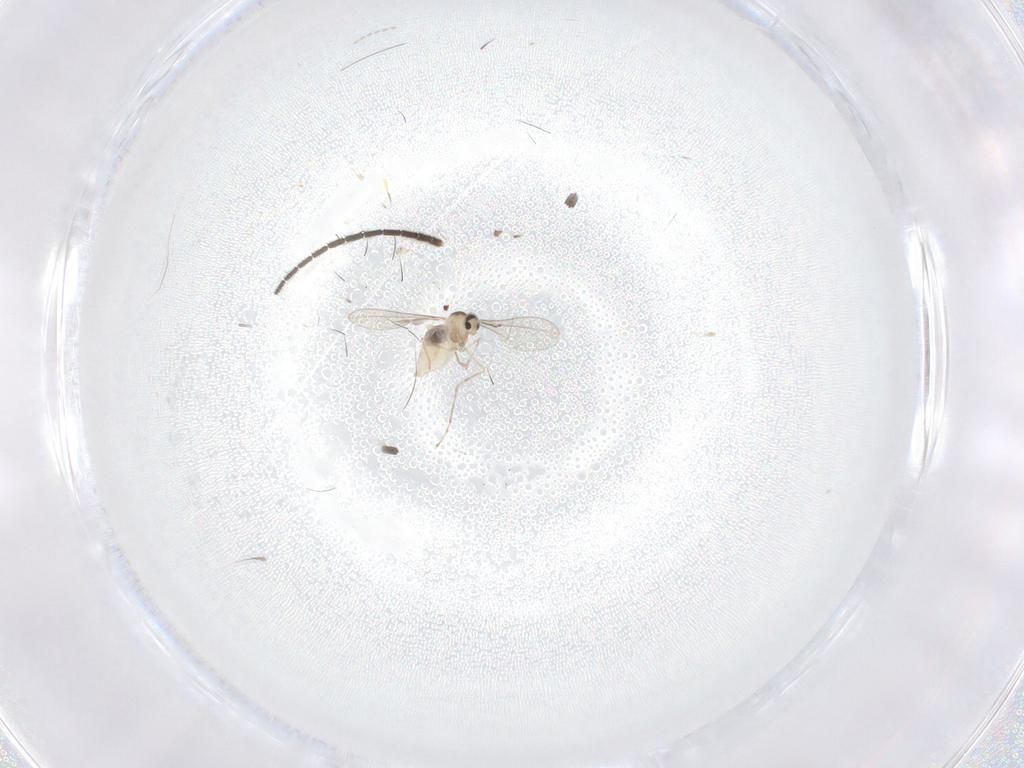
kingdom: Animalia
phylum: Arthropoda
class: Insecta
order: Diptera
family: Sciaridae
